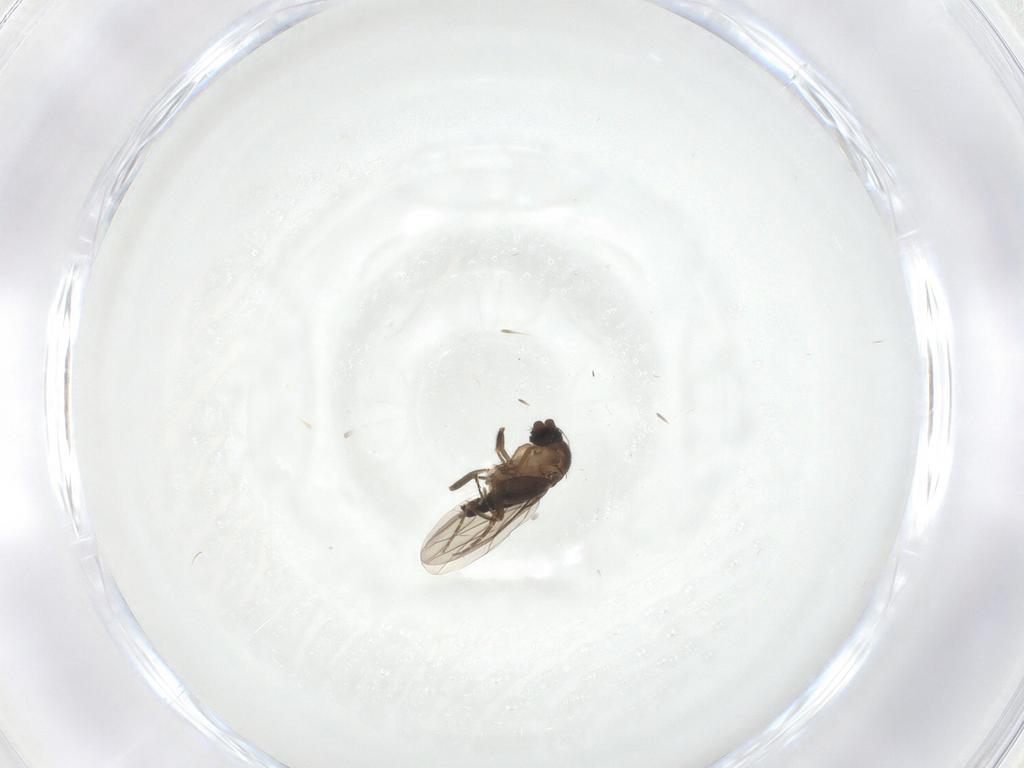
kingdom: Animalia
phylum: Arthropoda
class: Insecta
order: Diptera
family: Phoridae
